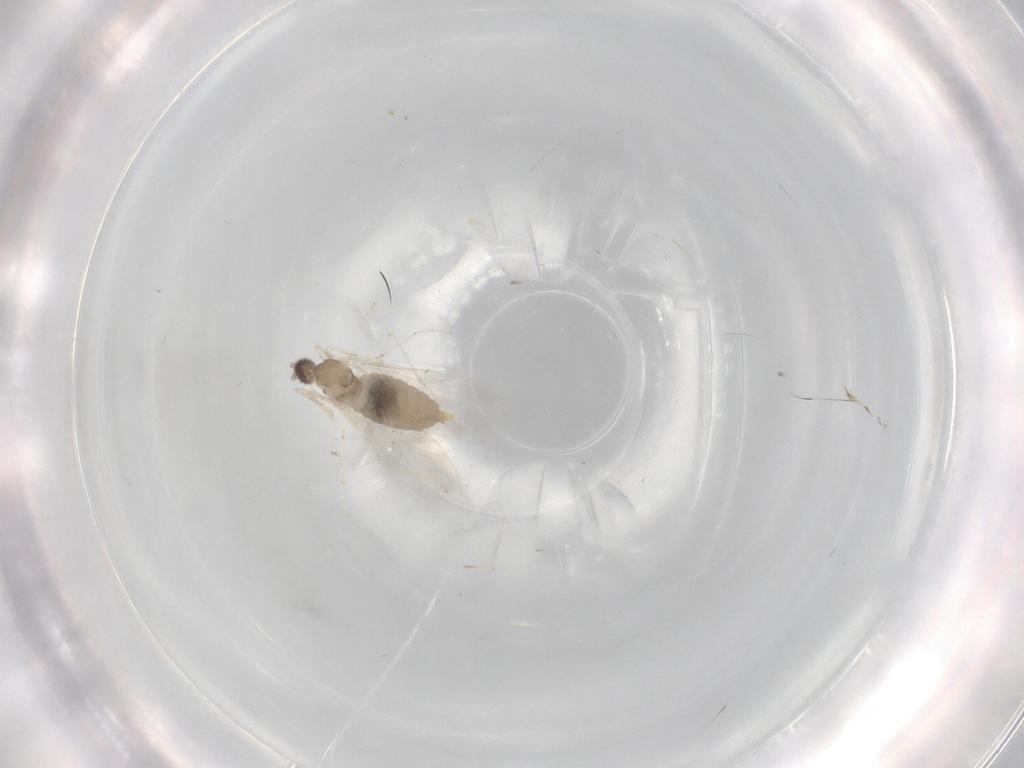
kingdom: Animalia
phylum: Arthropoda
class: Insecta
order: Diptera
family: Cecidomyiidae
